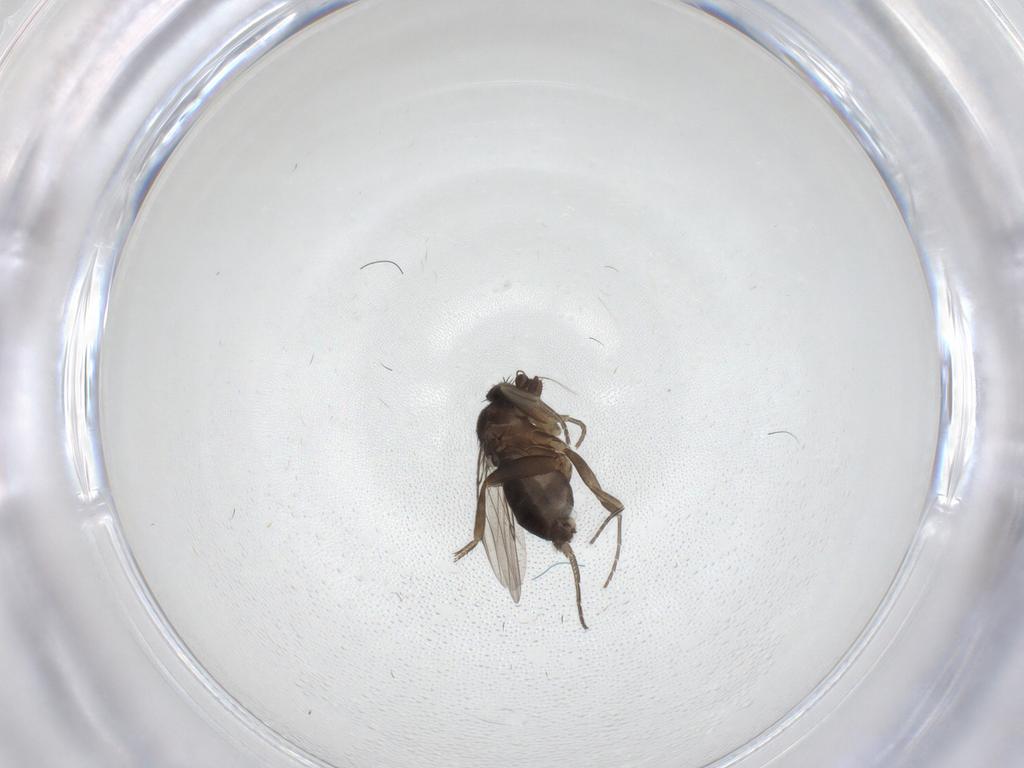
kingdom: Animalia
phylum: Arthropoda
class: Insecta
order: Diptera
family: Phoridae
